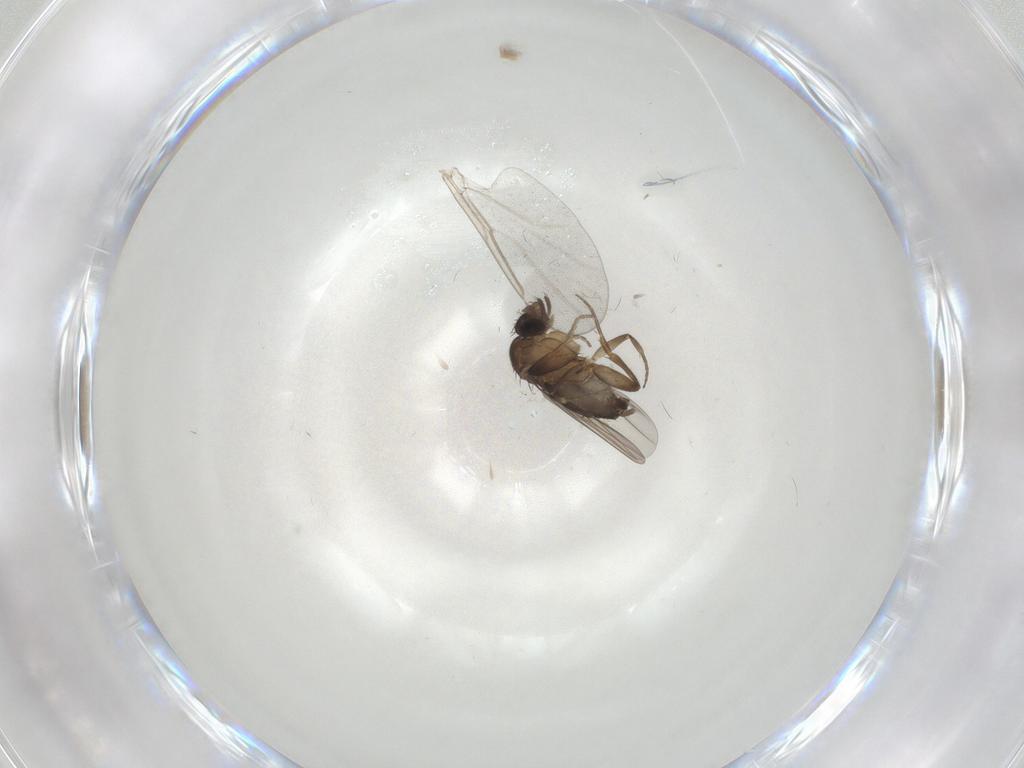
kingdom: Animalia
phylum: Arthropoda
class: Insecta
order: Diptera
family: Cecidomyiidae
